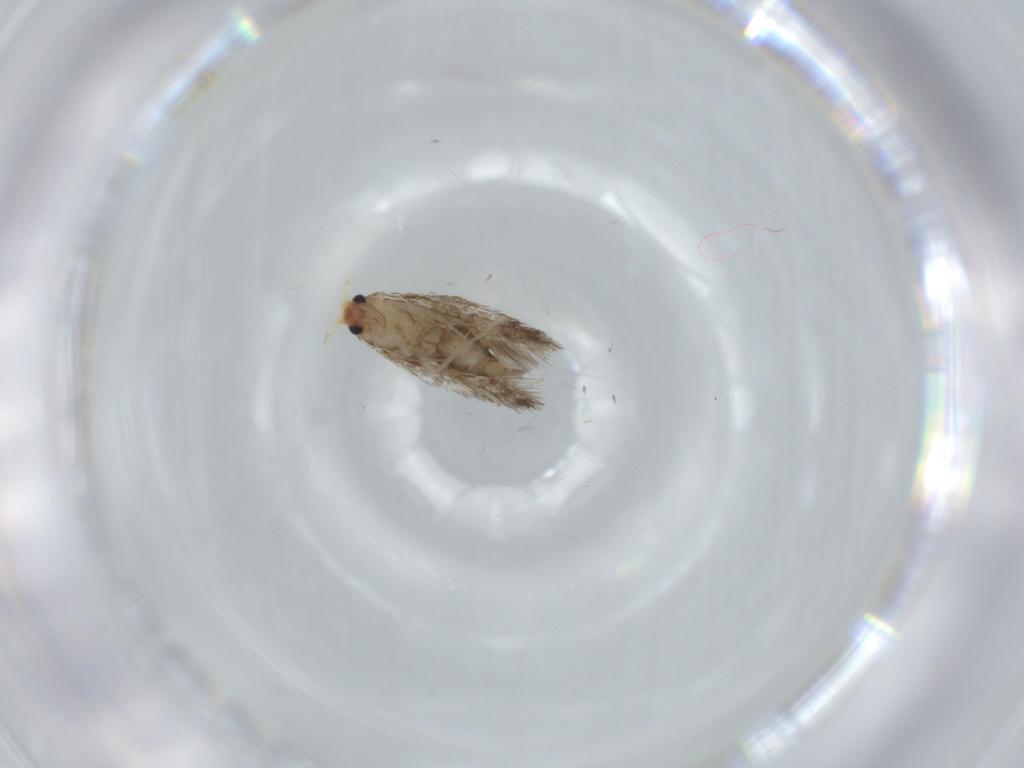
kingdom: Animalia
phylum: Arthropoda
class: Insecta
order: Lepidoptera
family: Nepticulidae
